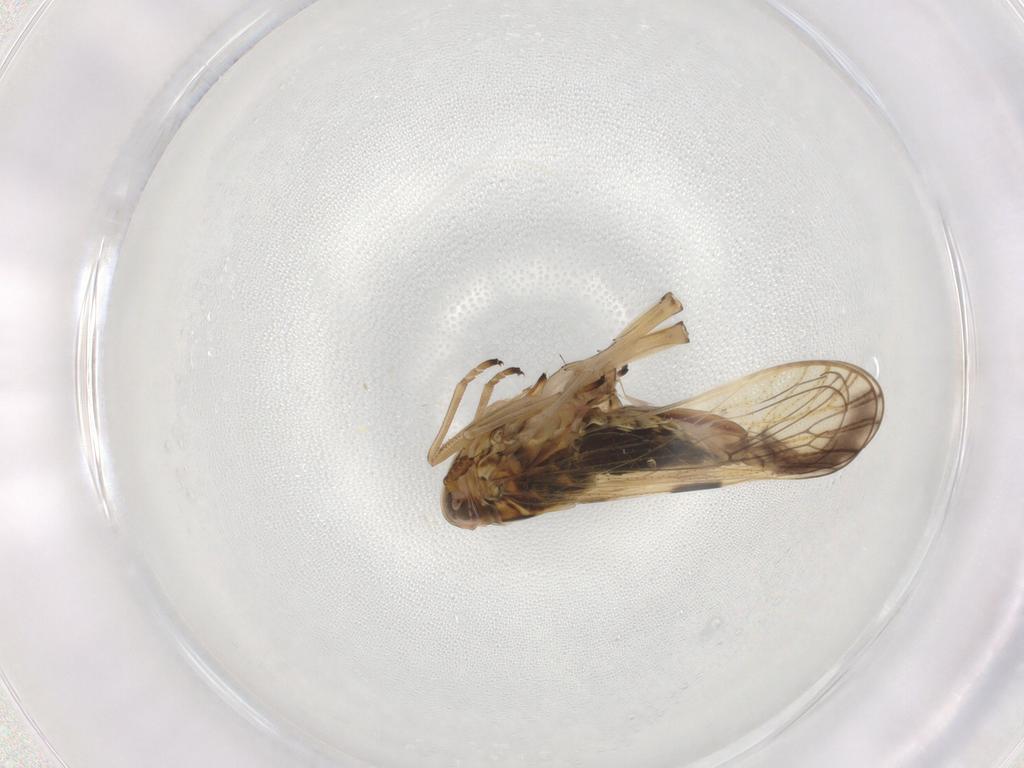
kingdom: Animalia
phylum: Arthropoda
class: Insecta
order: Hemiptera
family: Delphacidae
